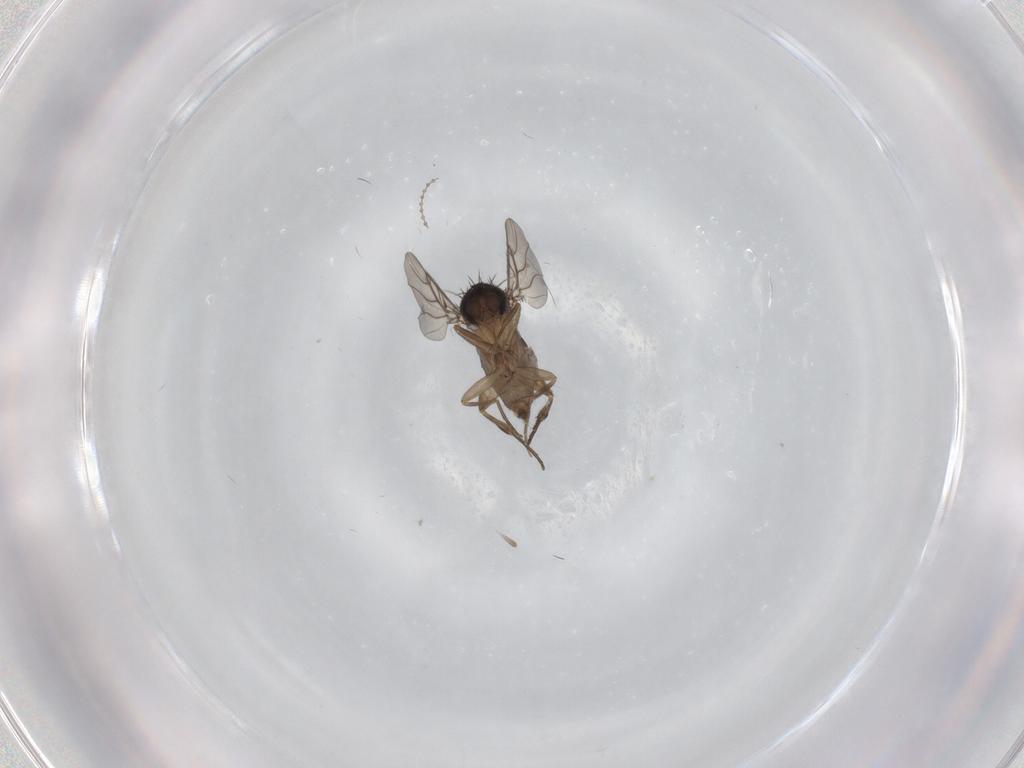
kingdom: Animalia
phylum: Arthropoda
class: Insecta
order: Diptera
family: Phoridae
